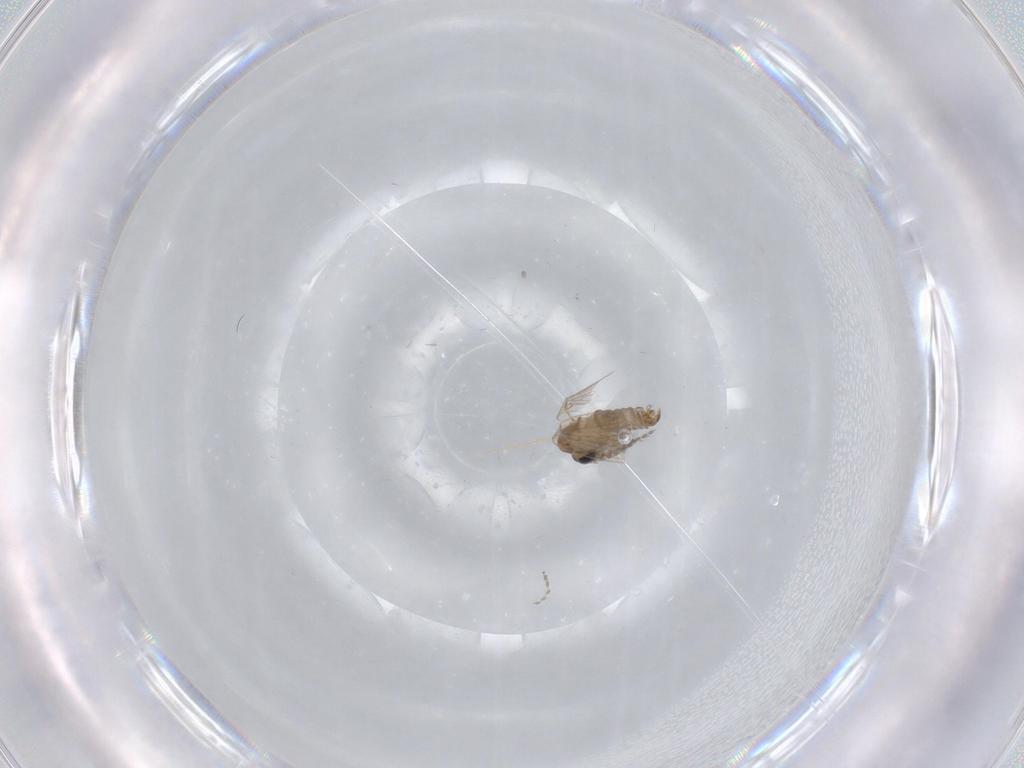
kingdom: Animalia
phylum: Arthropoda
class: Insecta
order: Diptera
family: Psychodidae
